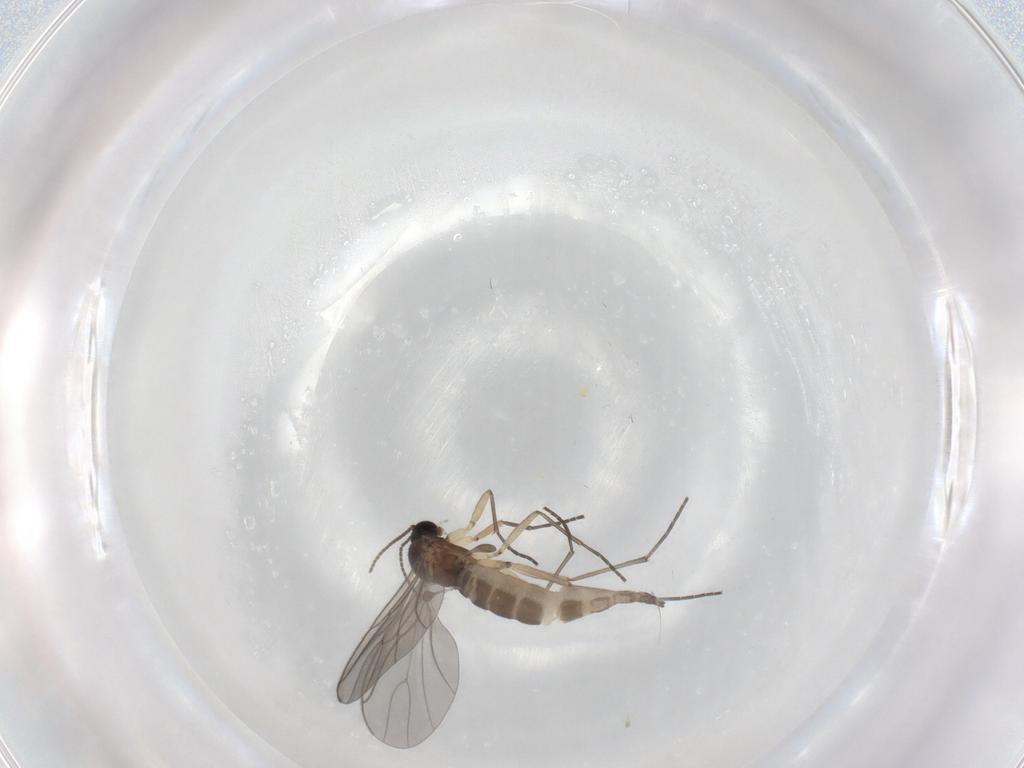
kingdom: Animalia
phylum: Arthropoda
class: Insecta
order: Diptera
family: Sciaridae
